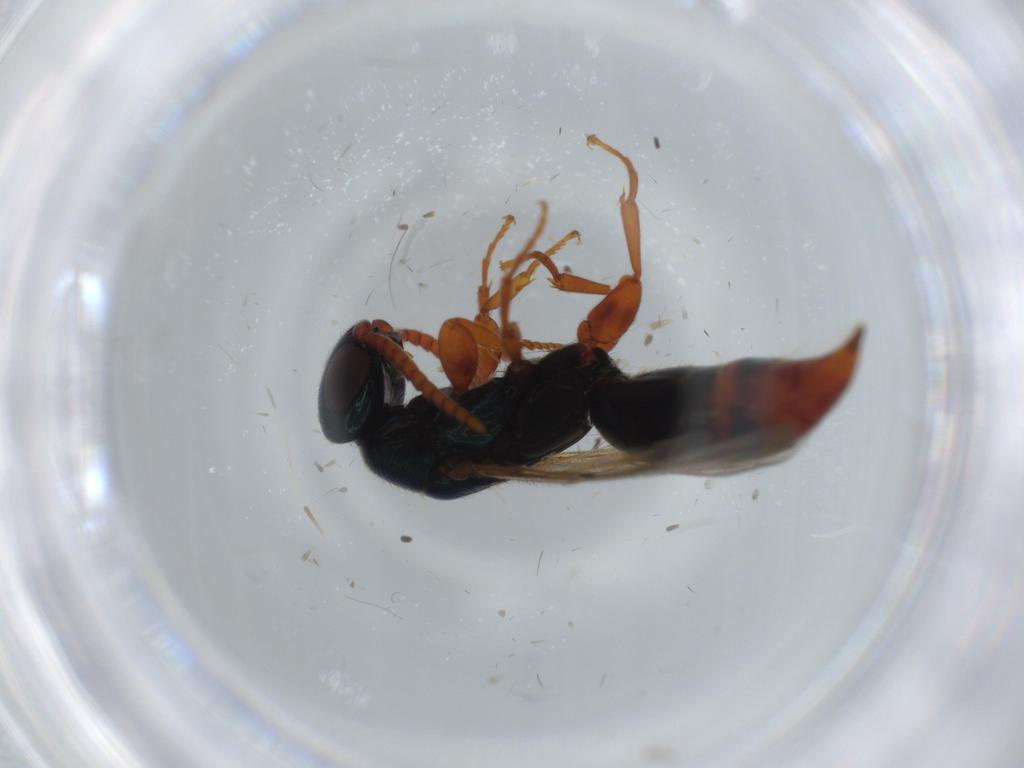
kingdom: Animalia
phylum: Arthropoda
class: Insecta
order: Hymenoptera
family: Bethylidae
